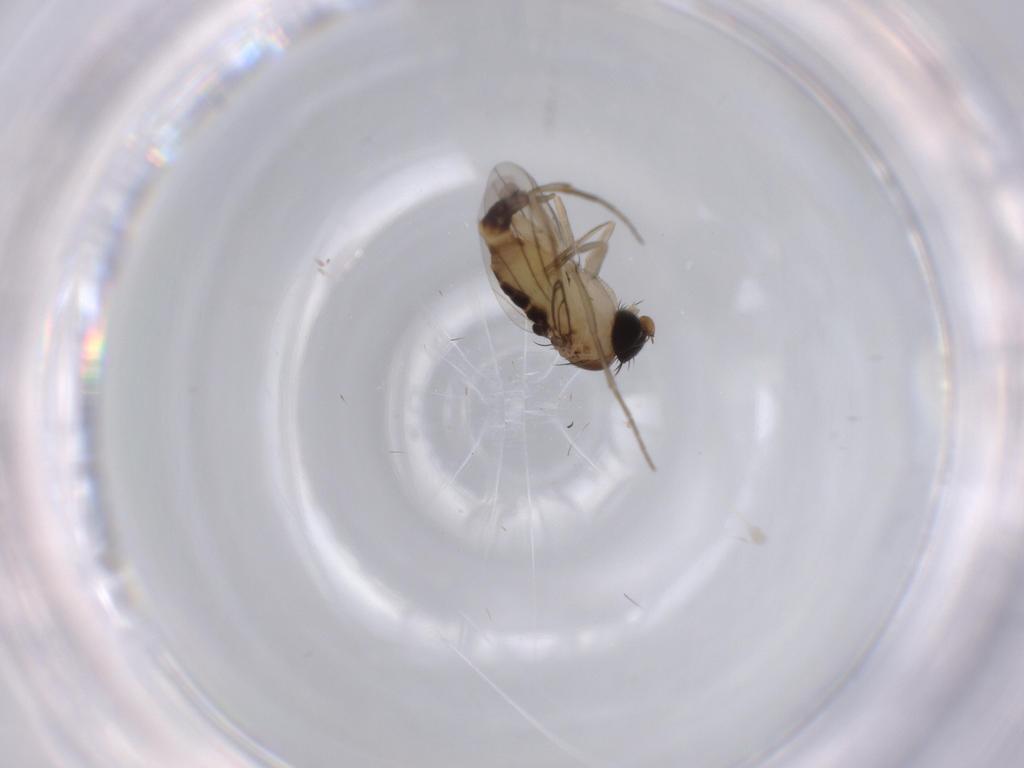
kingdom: Animalia
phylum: Arthropoda
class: Insecta
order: Diptera
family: Phoridae
